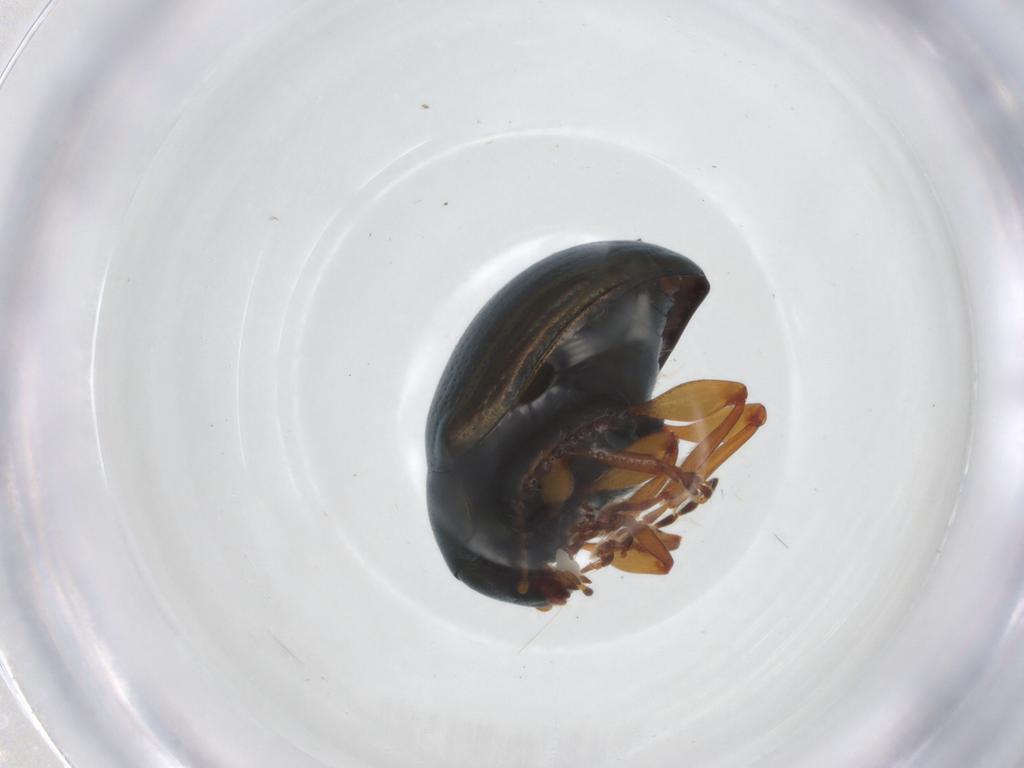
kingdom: Animalia
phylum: Arthropoda
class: Insecta
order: Coleoptera
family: Chrysomelidae
